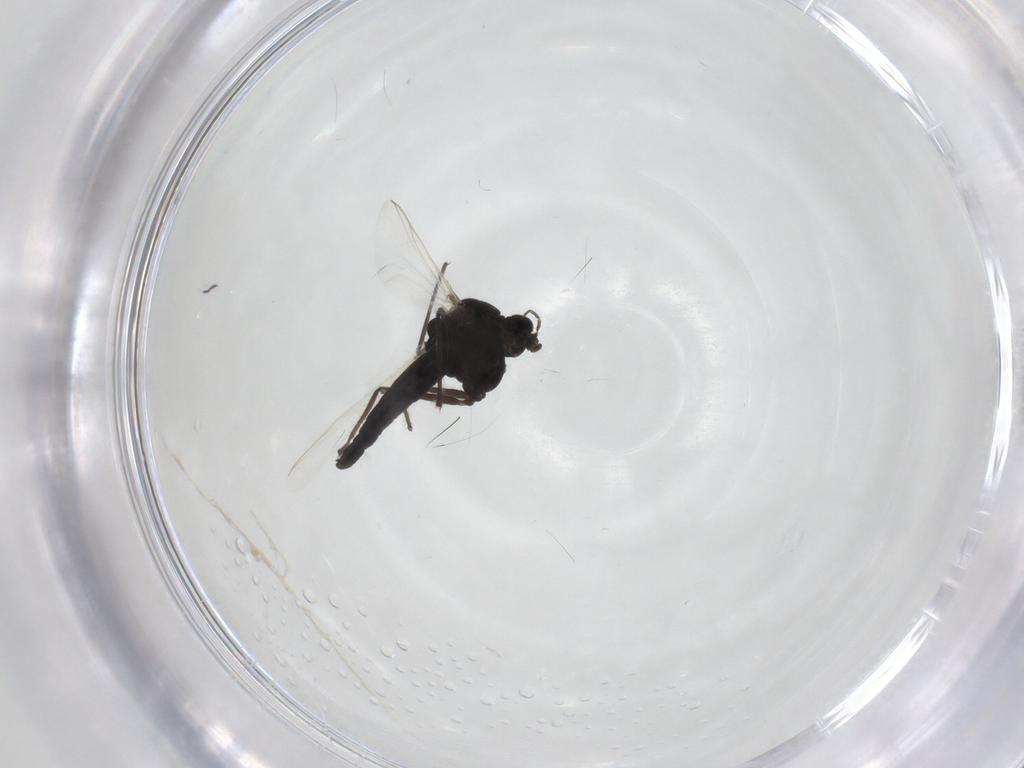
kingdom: Animalia
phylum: Arthropoda
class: Insecta
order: Diptera
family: Chironomidae
